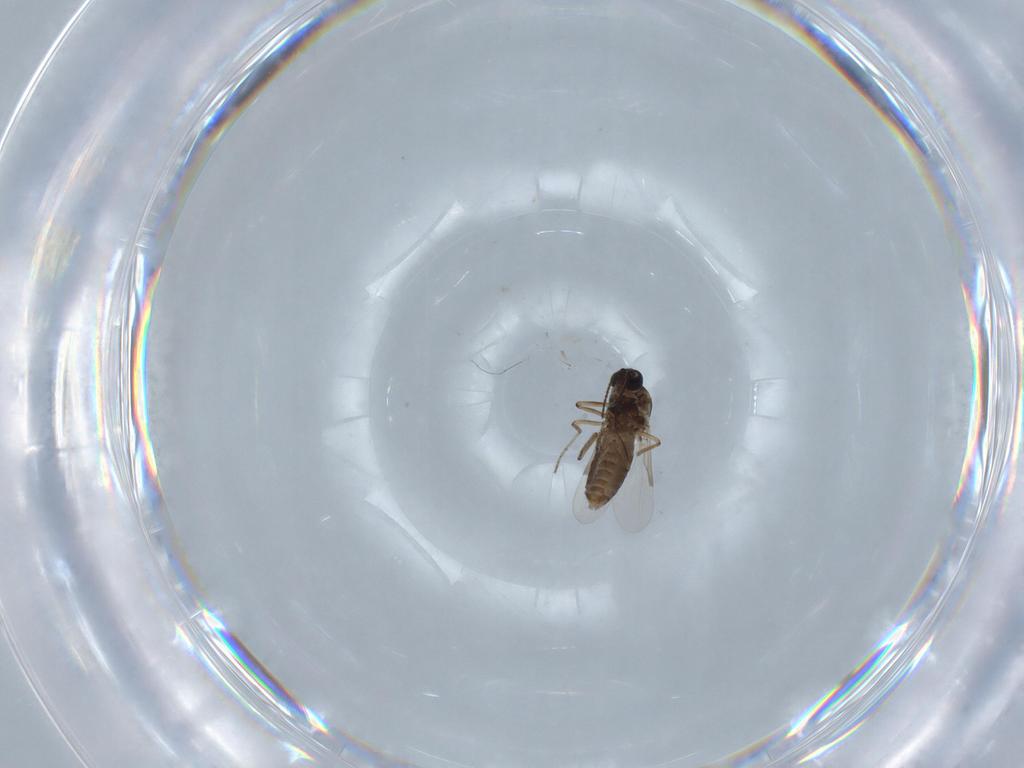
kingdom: Animalia
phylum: Arthropoda
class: Insecta
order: Diptera
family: Ceratopogonidae
